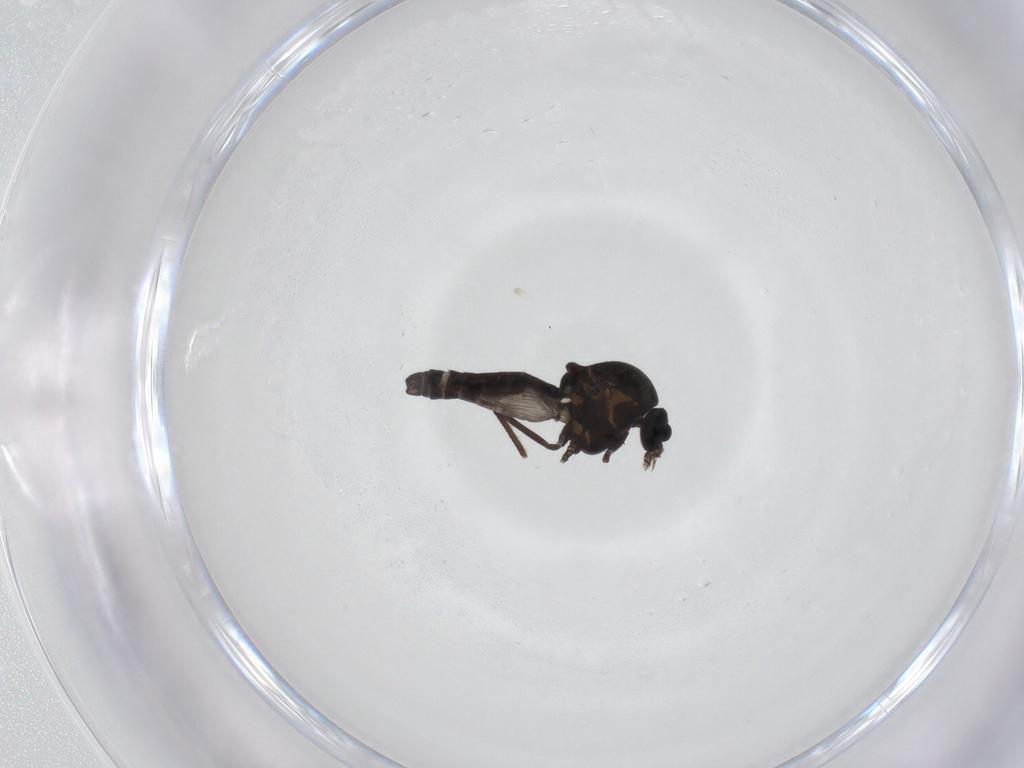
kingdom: Animalia
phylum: Arthropoda
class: Insecta
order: Diptera
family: Ceratopogonidae
